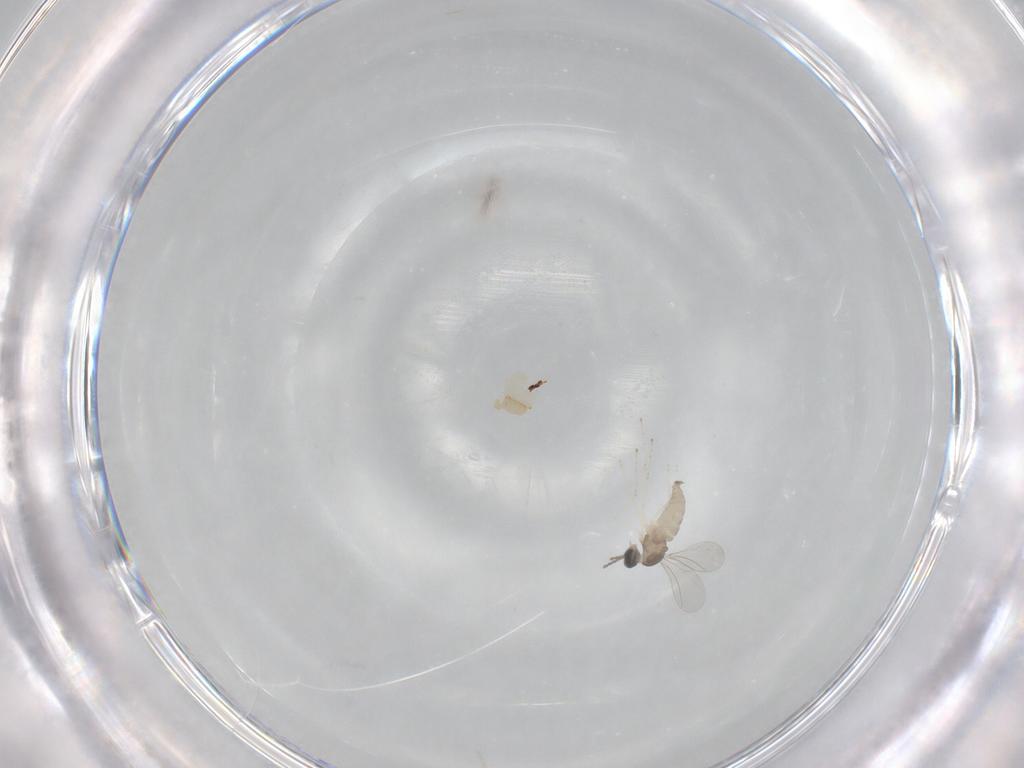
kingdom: Animalia
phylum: Arthropoda
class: Insecta
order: Diptera
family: Cecidomyiidae
